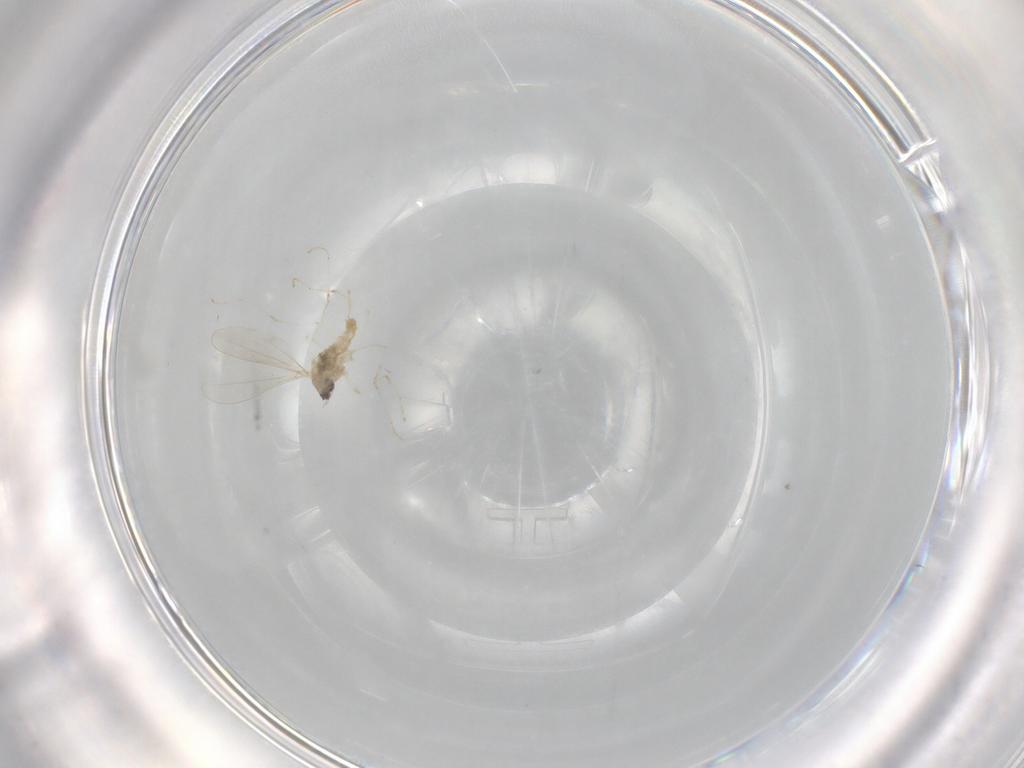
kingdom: Animalia
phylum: Arthropoda
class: Insecta
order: Diptera
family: Cecidomyiidae
